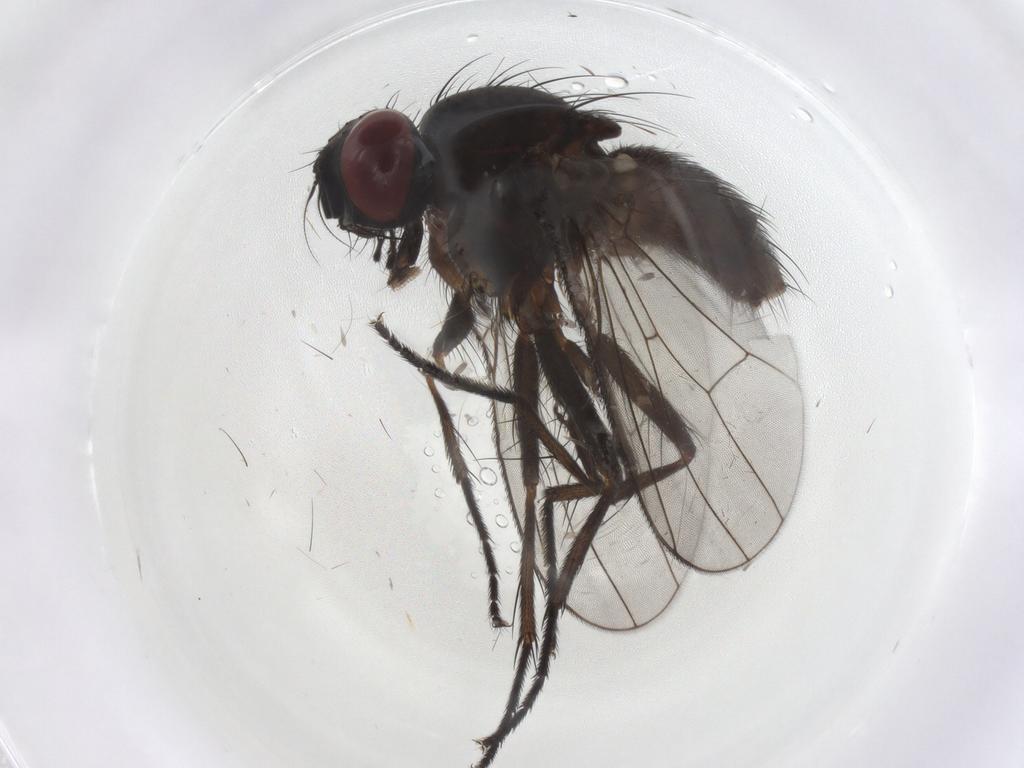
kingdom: Animalia
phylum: Arthropoda
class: Insecta
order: Diptera
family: Muscidae
